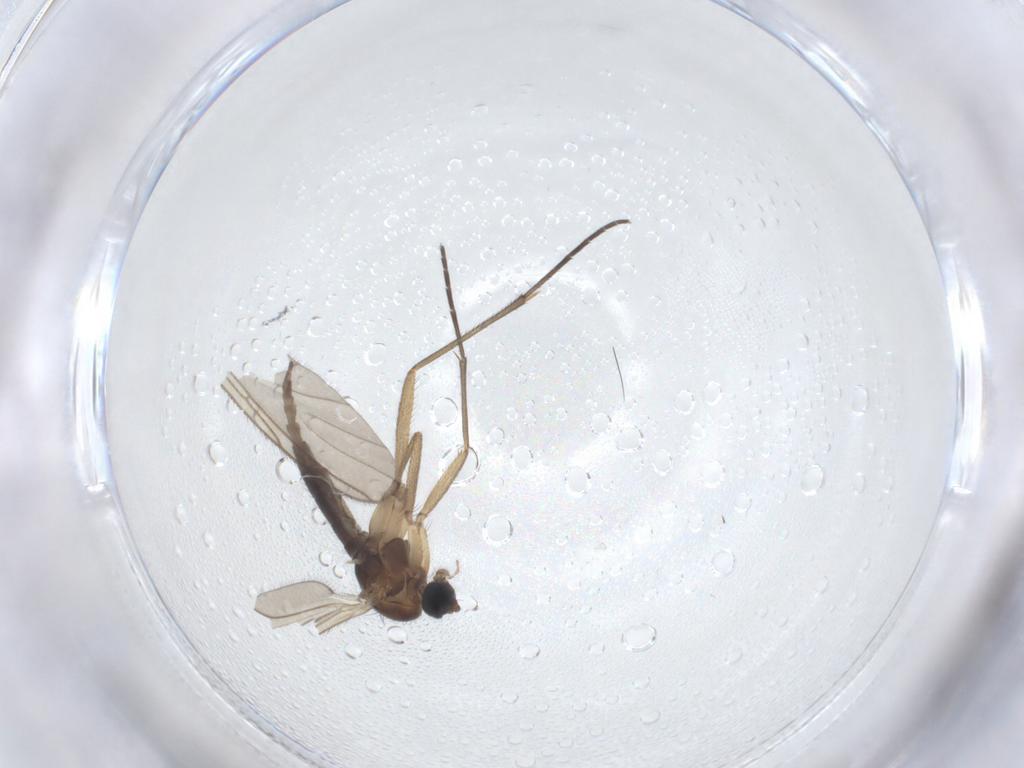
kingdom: Animalia
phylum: Arthropoda
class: Insecta
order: Diptera
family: Sciaridae
